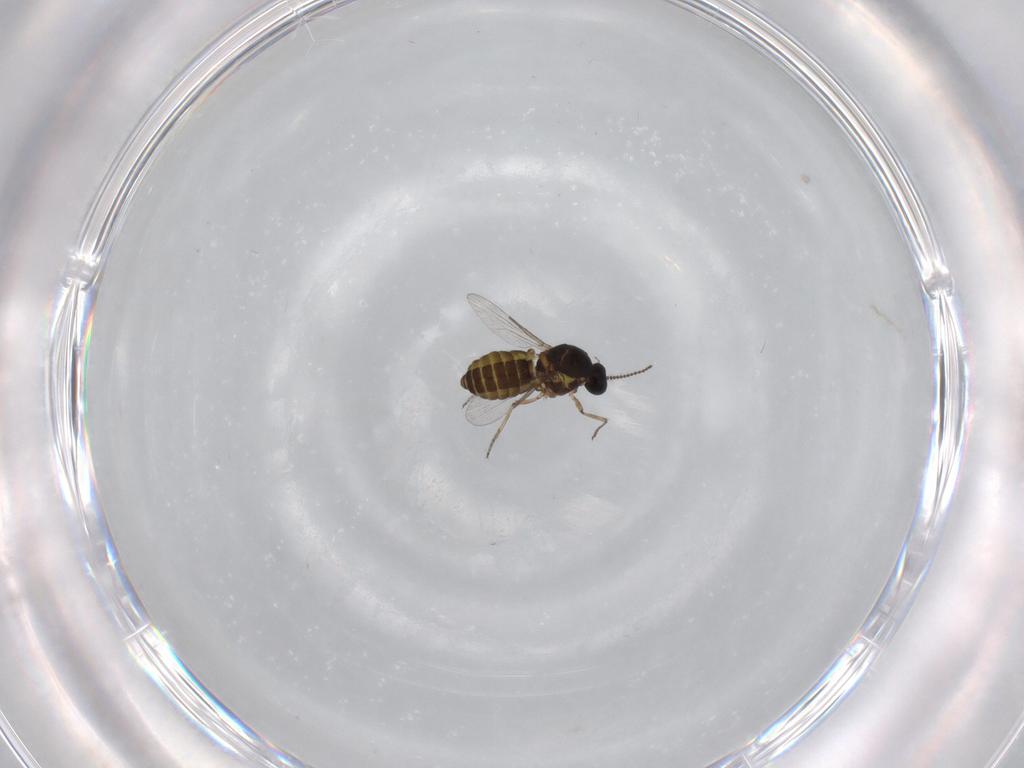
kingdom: Animalia
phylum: Arthropoda
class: Insecta
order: Diptera
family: Ceratopogonidae
